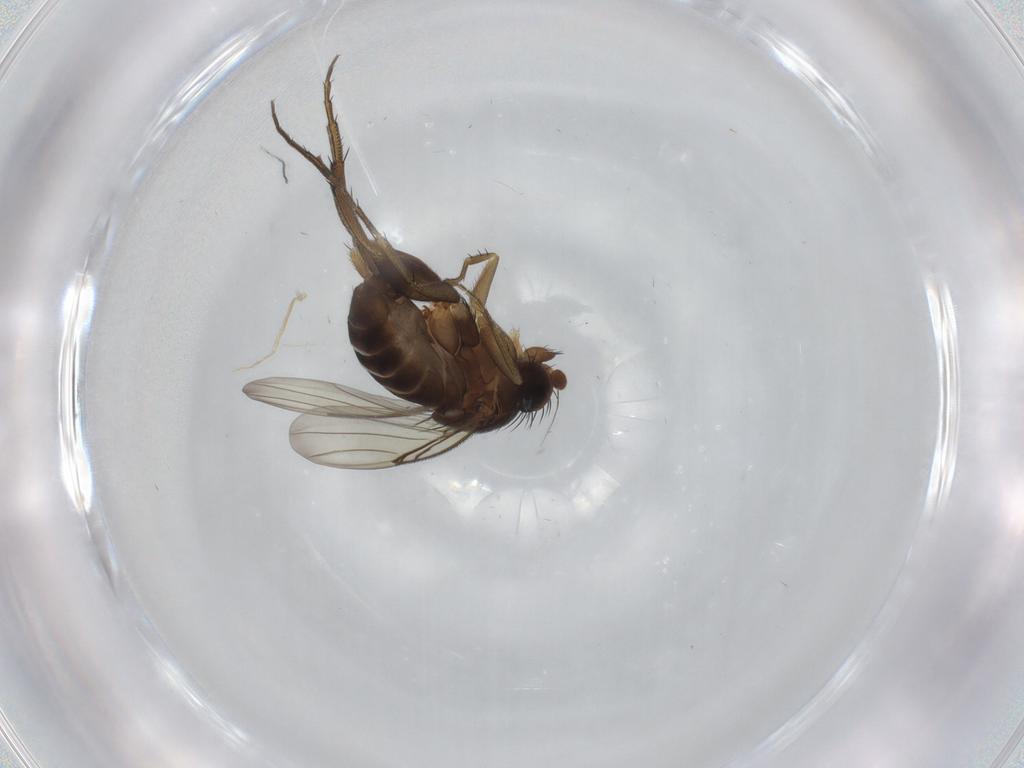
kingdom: Animalia
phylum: Arthropoda
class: Insecta
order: Diptera
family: Phoridae
